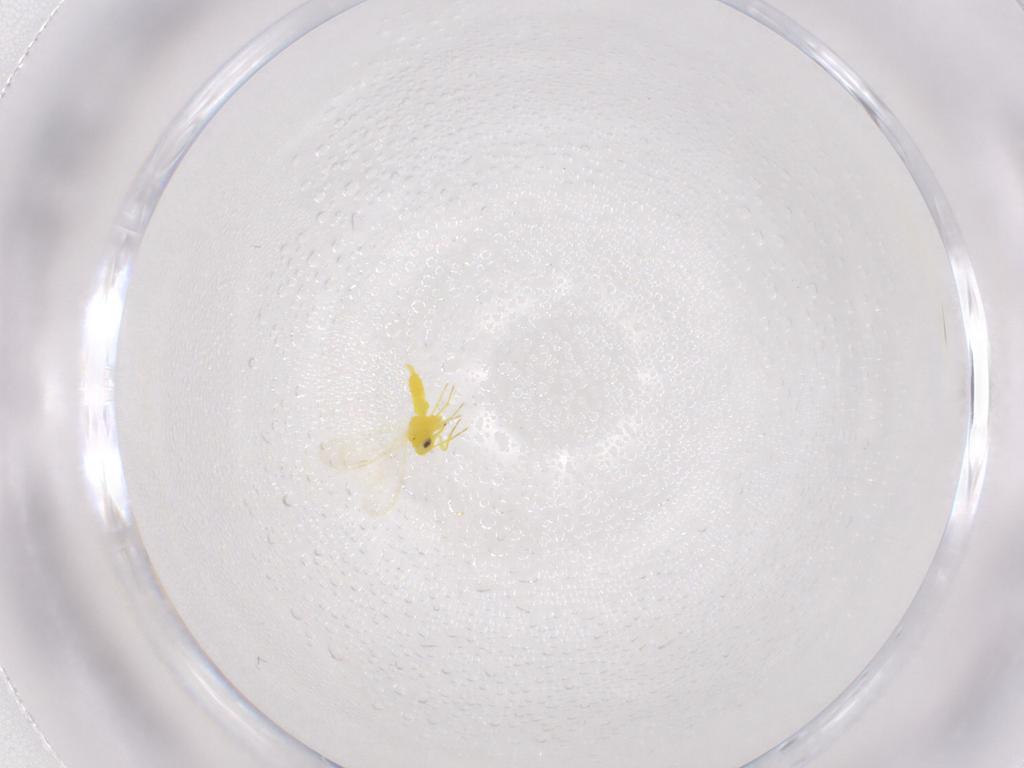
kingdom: Animalia
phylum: Arthropoda
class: Insecta
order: Hemiptera
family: Aleyrodidae
